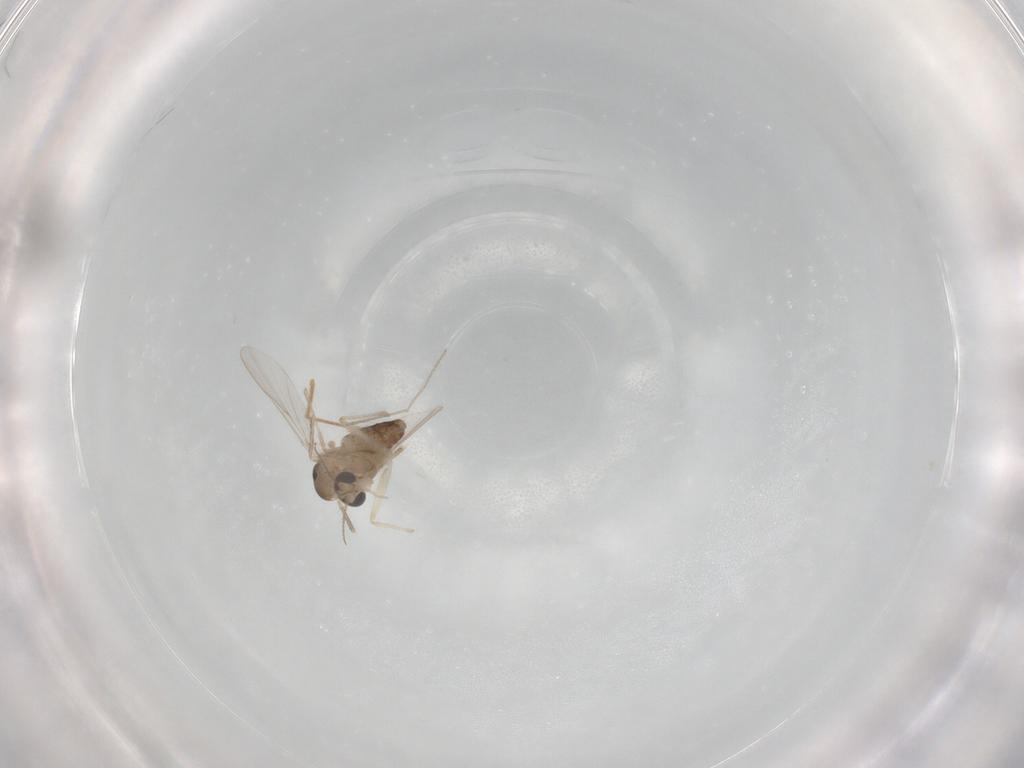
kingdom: Animalia
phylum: Arthropoda
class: Insecta
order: Diptera
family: Chironomidae
